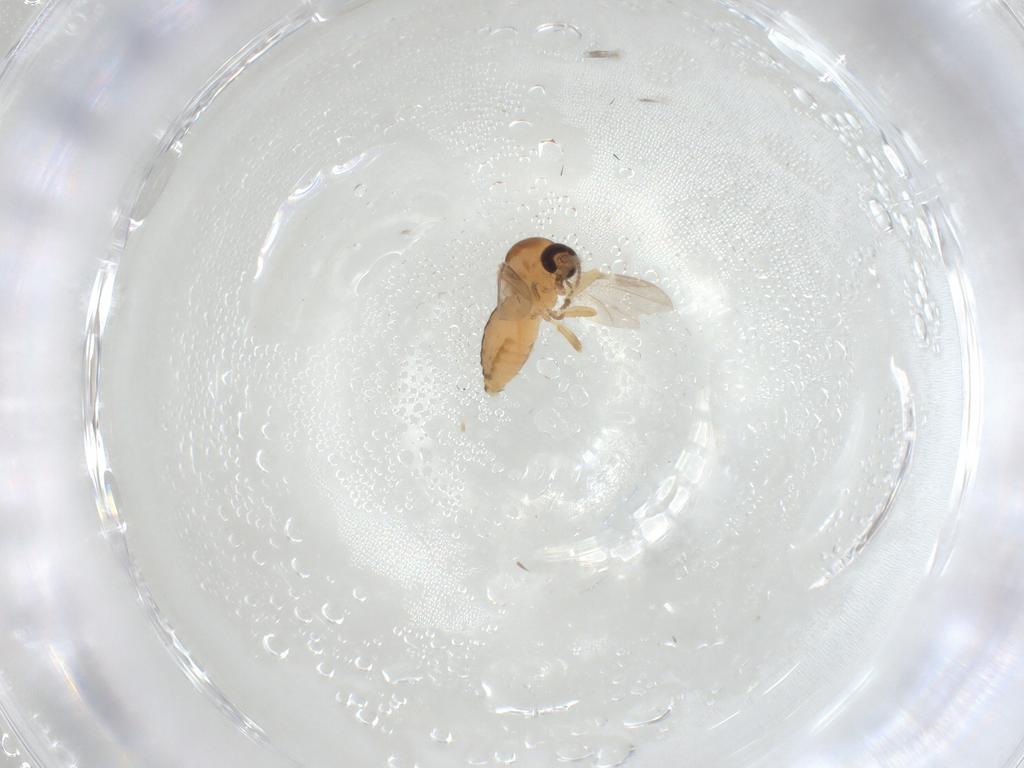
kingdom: Animalia
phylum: Arthropoda
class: Insecta
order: Diptera
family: Chloropidae
